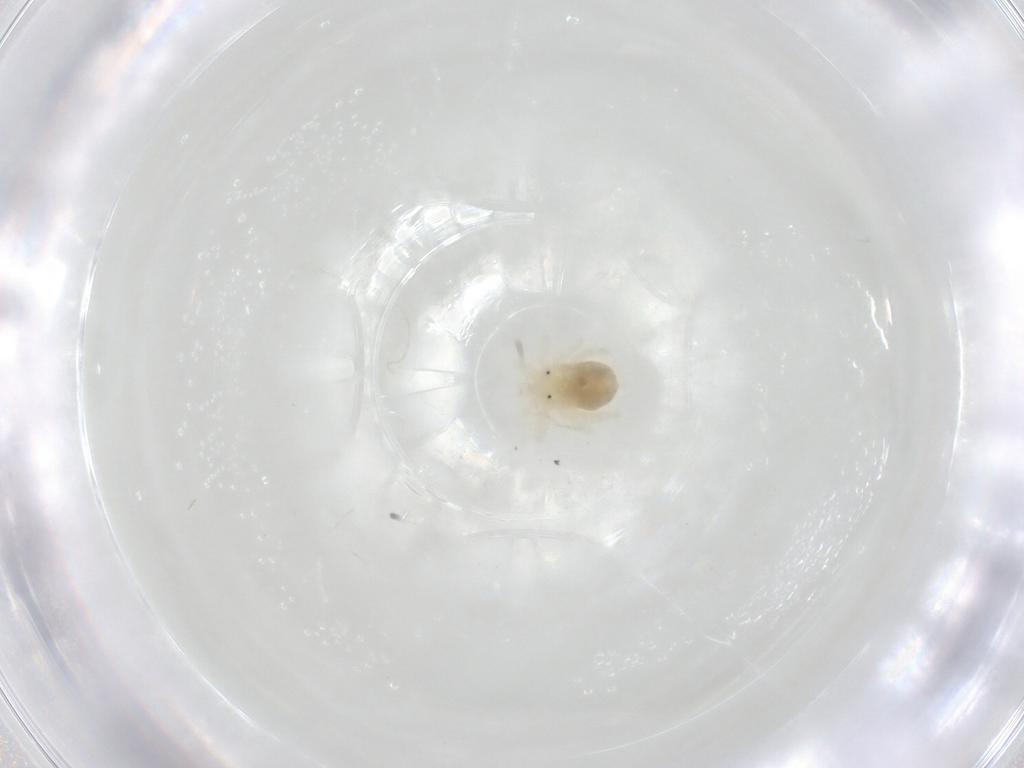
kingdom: Animalia
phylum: Arthropoda
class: Arachnida
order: Trombidiformes
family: Anystidae
